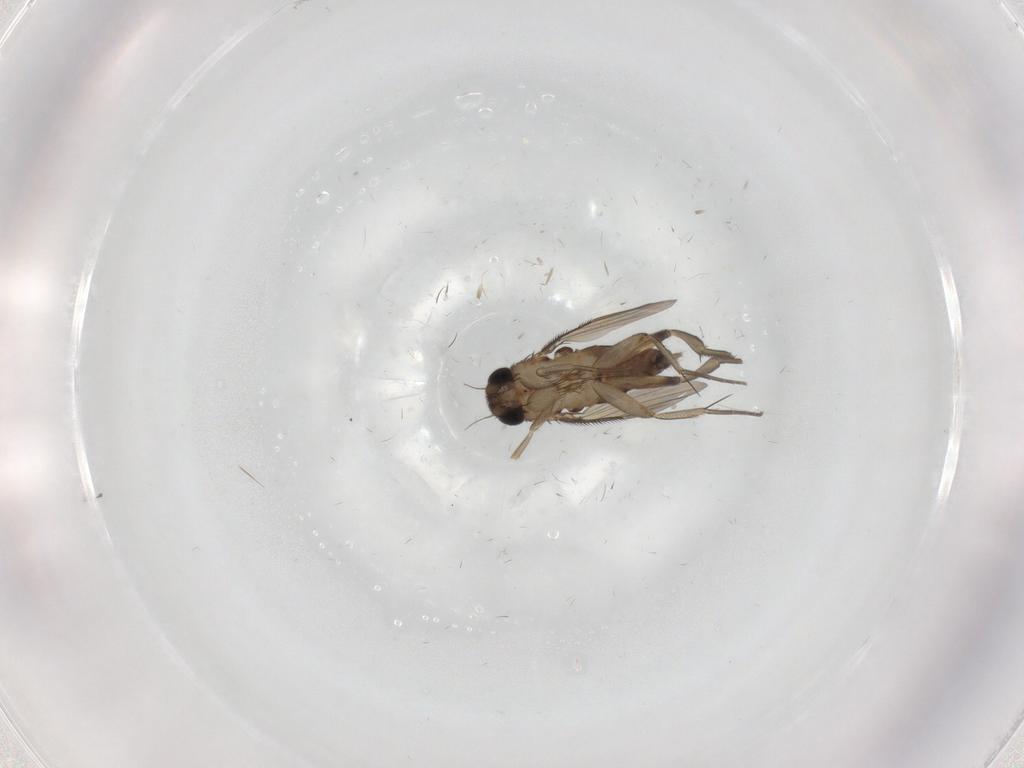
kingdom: Animalia
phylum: Arthropoda
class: Insecta
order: Diptera
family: Phoridae
